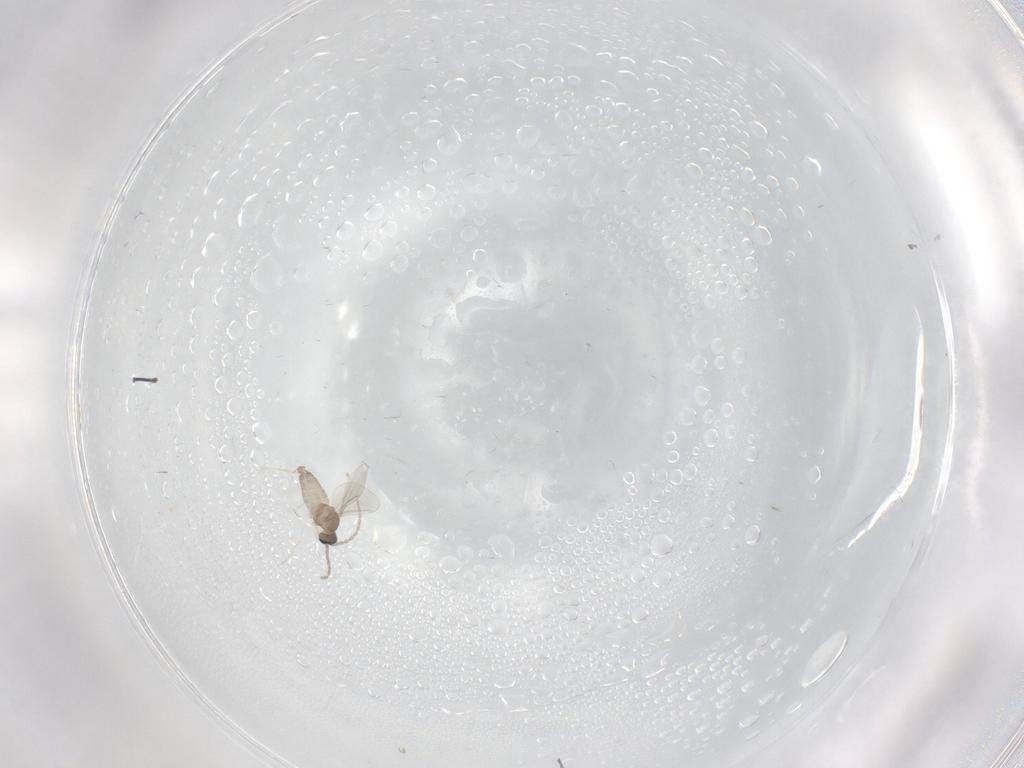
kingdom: Animalia
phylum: Arthropoda
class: Insecta
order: Diptera
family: Cecidomyiidae
